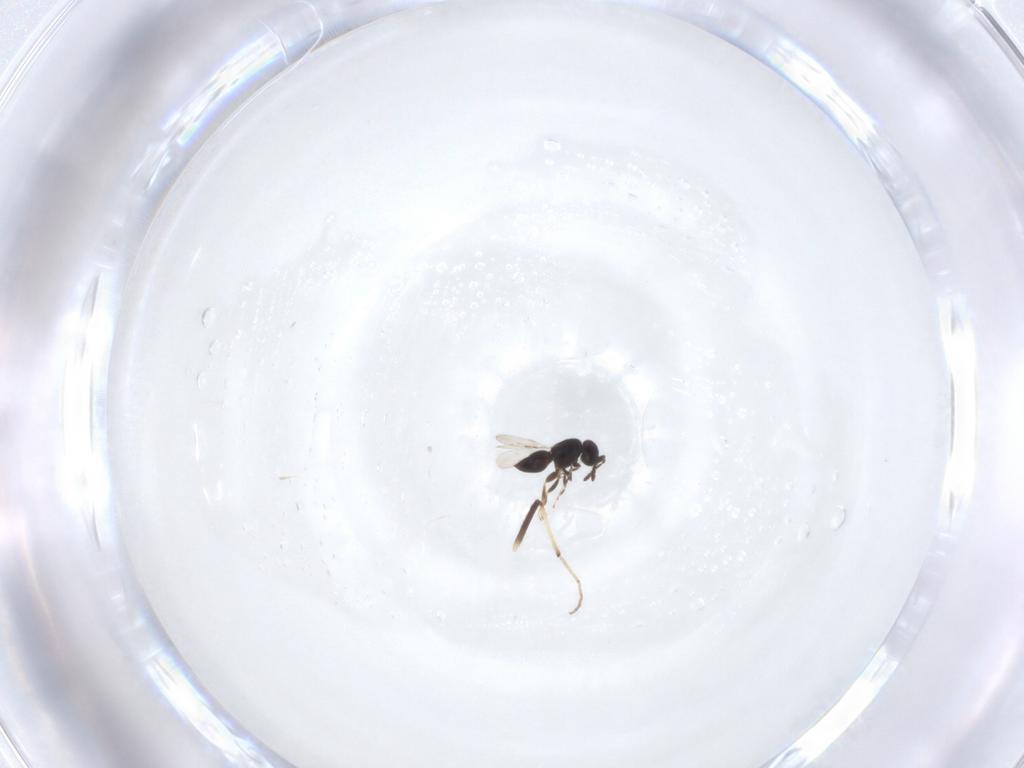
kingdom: Animalia
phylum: Arthropoda
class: Insecta
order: Diptera
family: Chironomidae
